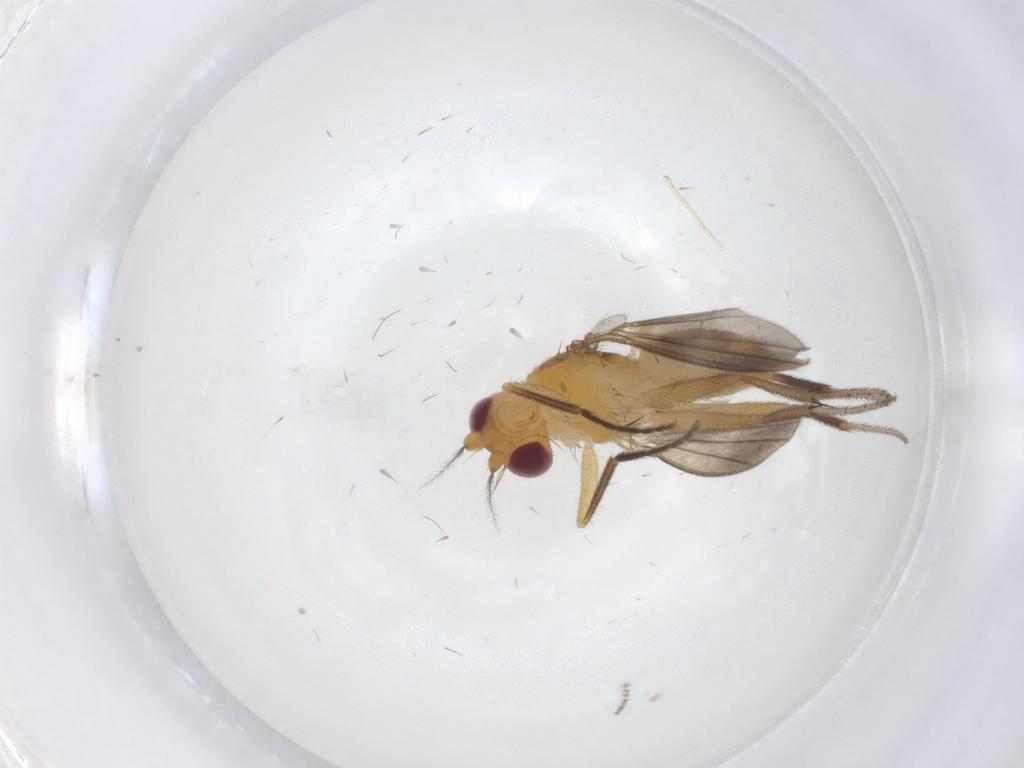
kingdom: Animalia
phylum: Arthropoda
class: Insecta
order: Diptera
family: Clusiidae
